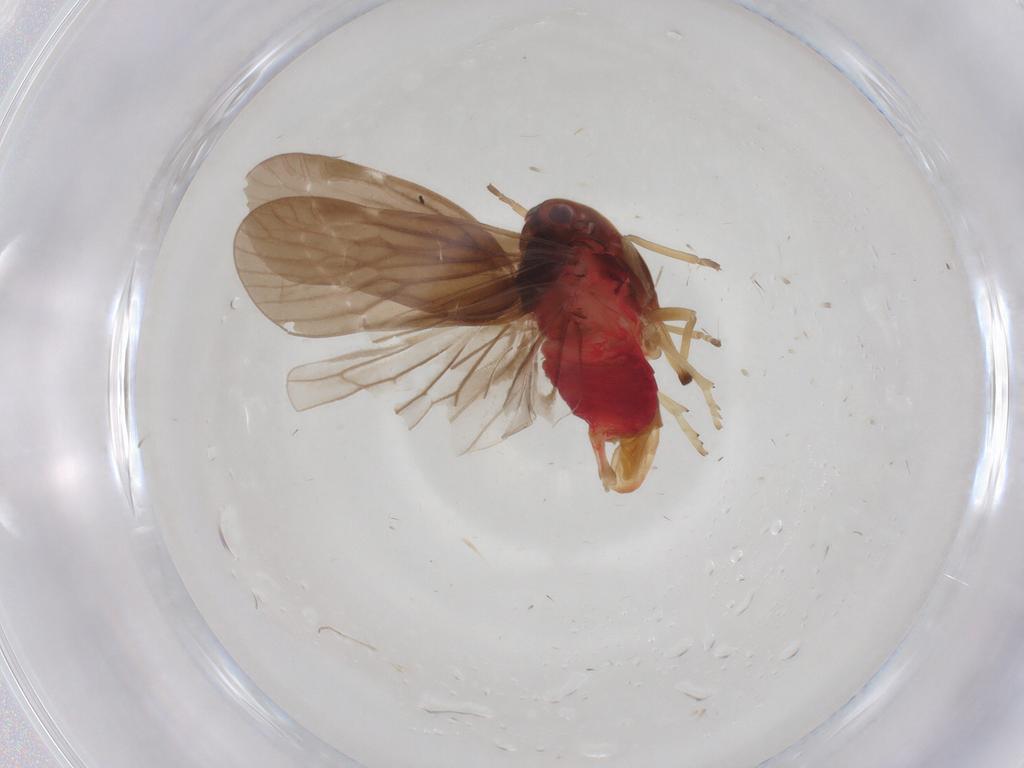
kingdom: Animalia
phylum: Arthropoda
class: Insecta
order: Hemiptera
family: Derbidae
